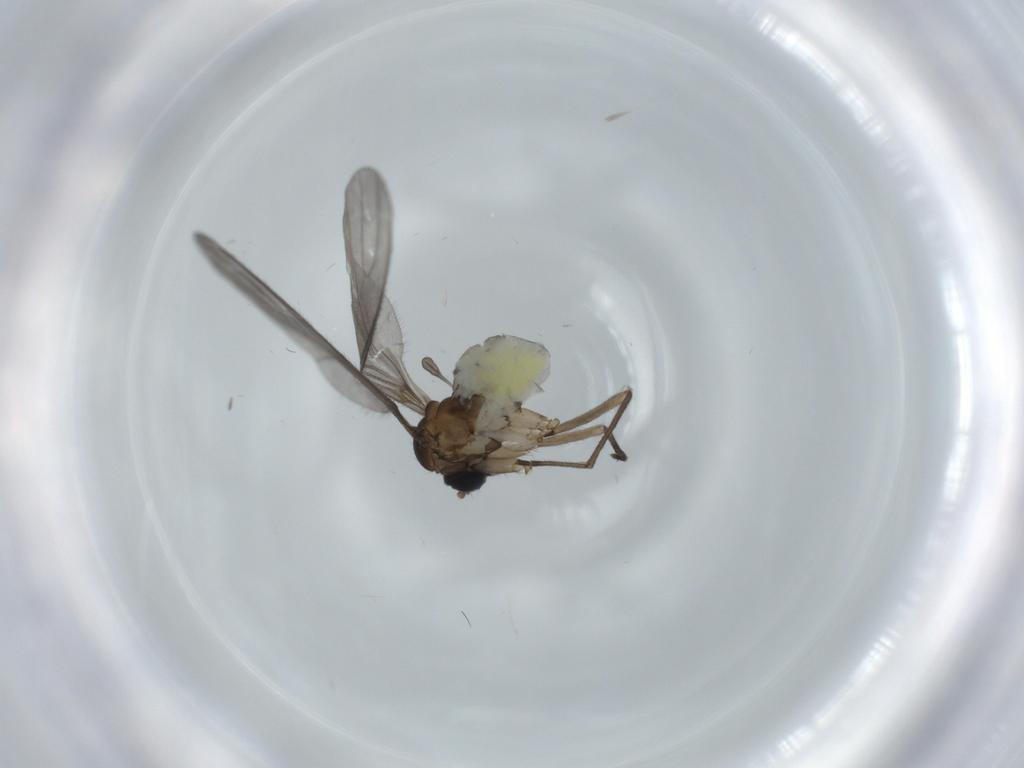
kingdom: Animalia
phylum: Arthropoda
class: Insecta
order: Diptera
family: Sciaridae
